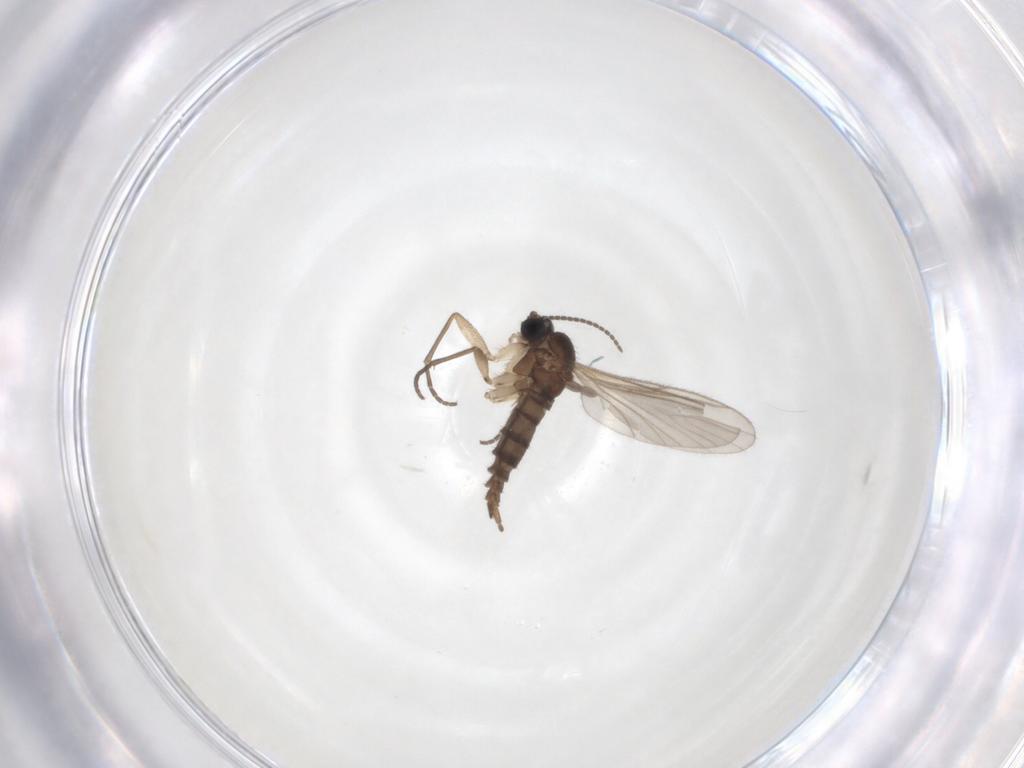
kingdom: Animalia
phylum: Arthropoda
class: Insecta
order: Diptera
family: Sciaridae
